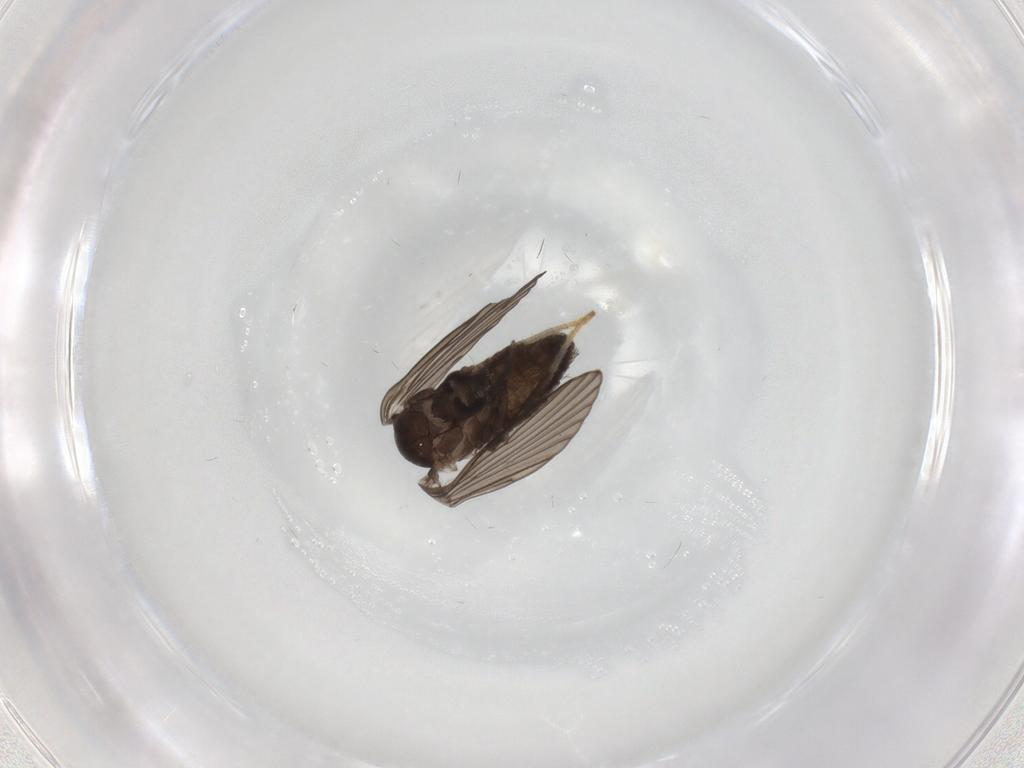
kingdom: Animalia
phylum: Arthropoda
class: Insecta
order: Diptera
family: Psychodidae
